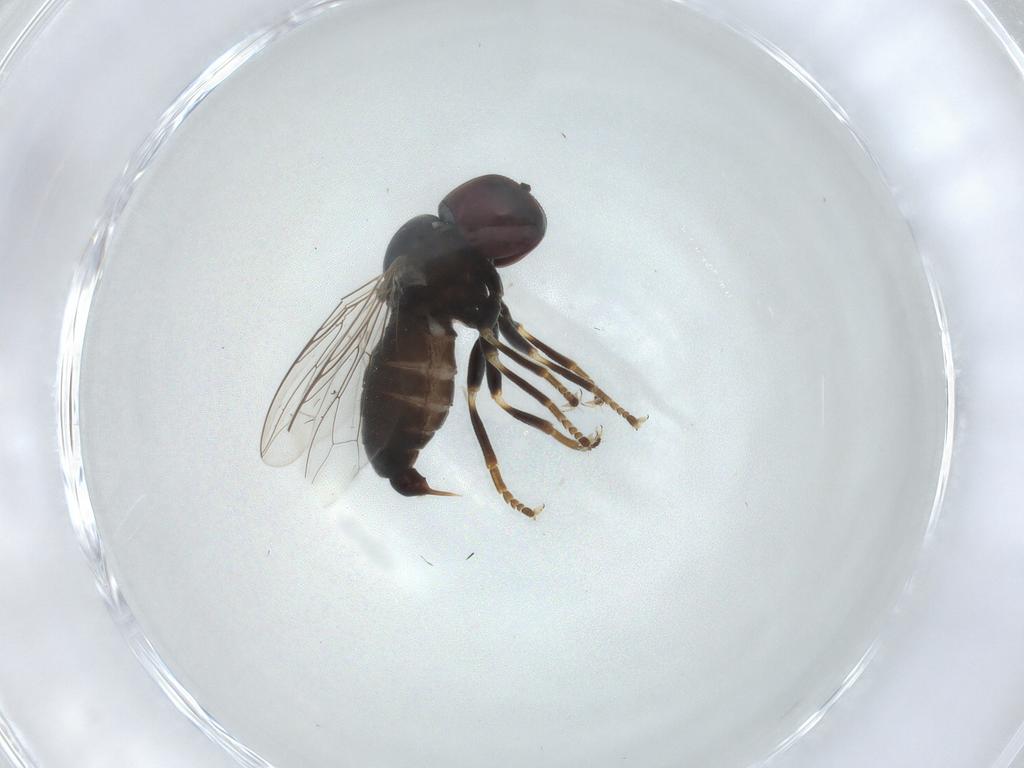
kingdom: Animalia
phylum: Arthropoda
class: Insecta
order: Diptera
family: Pipunculidae
